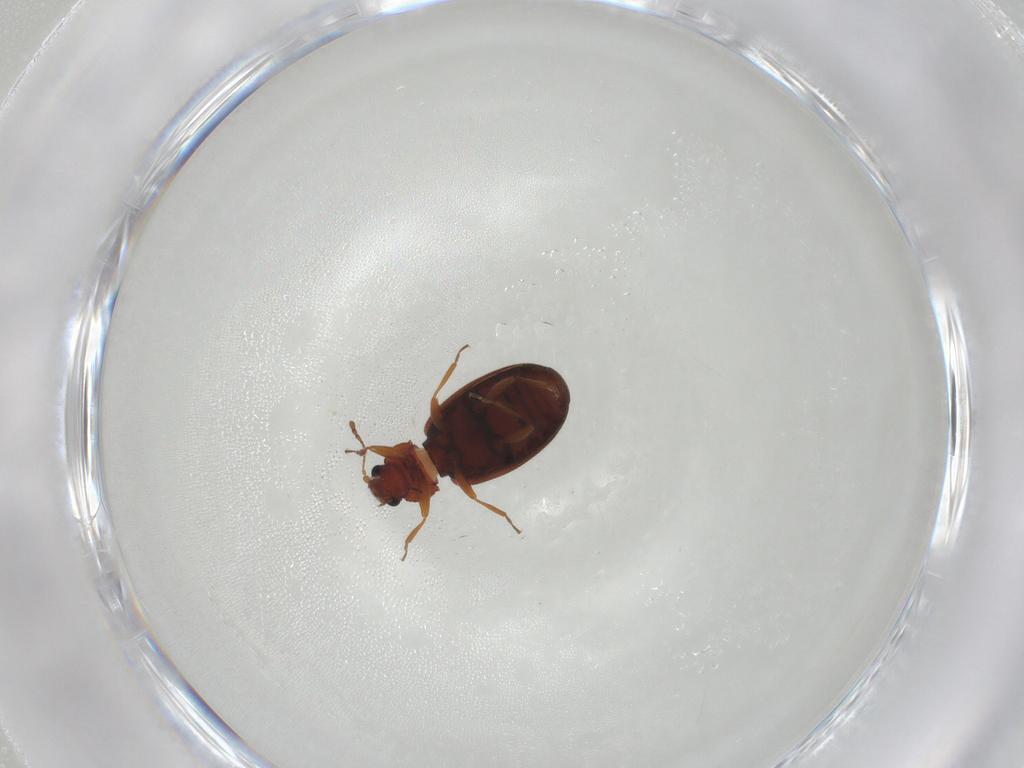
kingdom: Animalia
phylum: Arthropoda
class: Insecta
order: Coleoptera
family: Latridiidae
